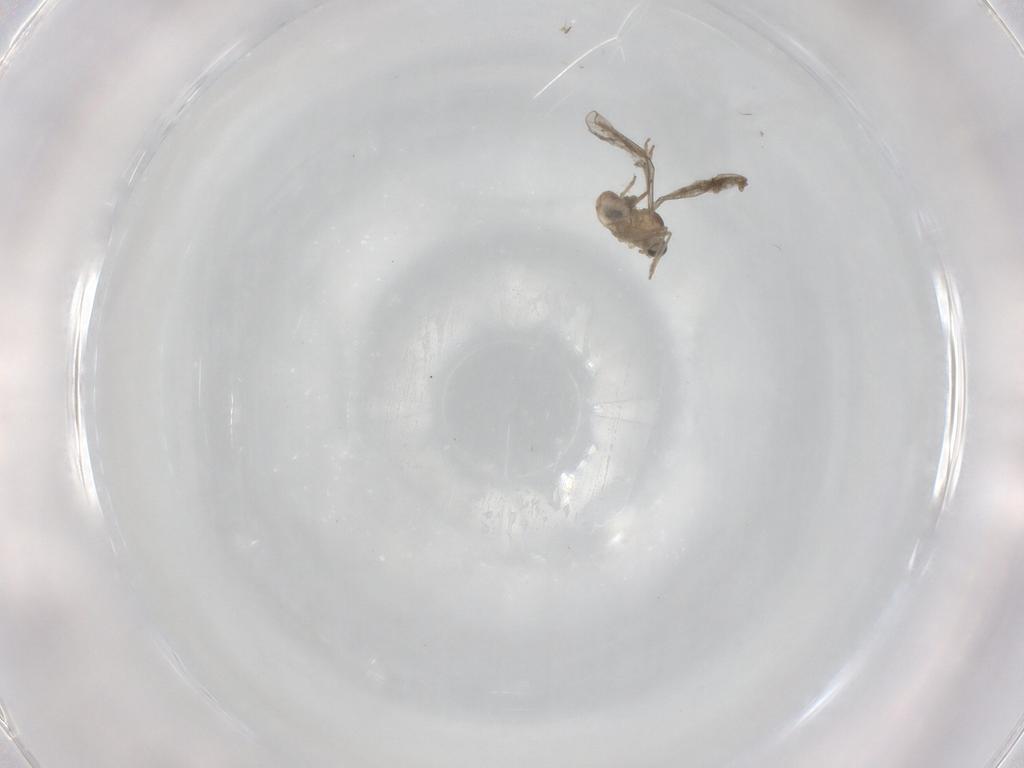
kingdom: Animalia
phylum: Arthropoda
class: Insecta
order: Diptera
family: Cecidomyiidae
